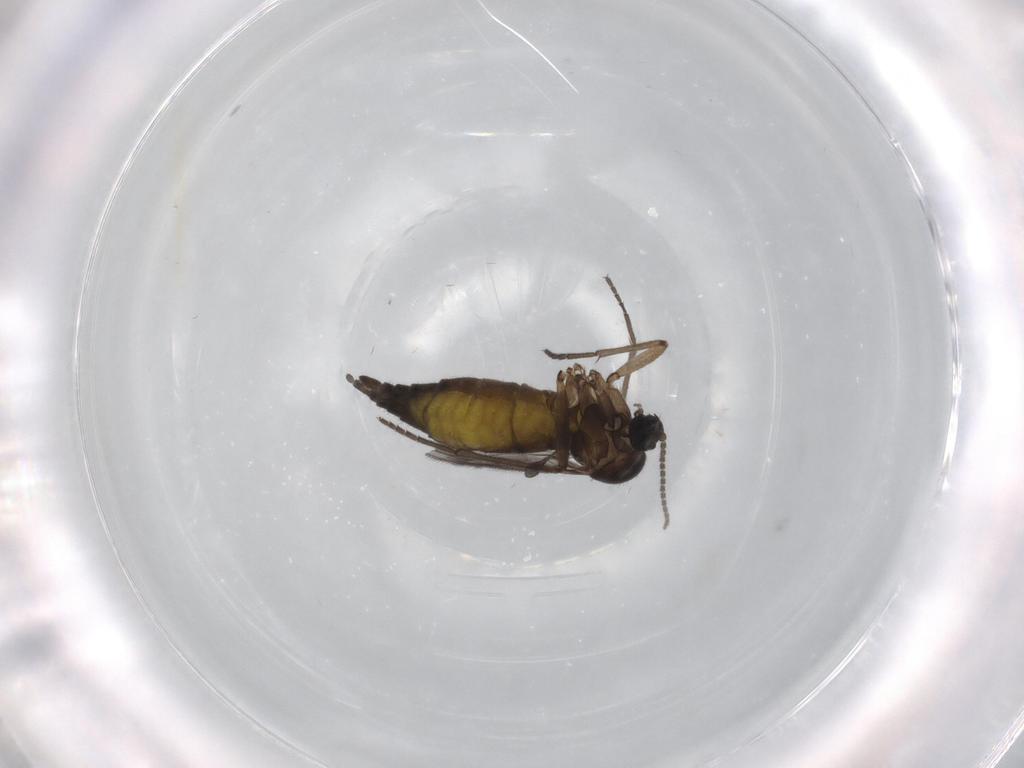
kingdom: Animalia
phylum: Arthropoda
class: Insecta
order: Diptera
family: Sciaridae
